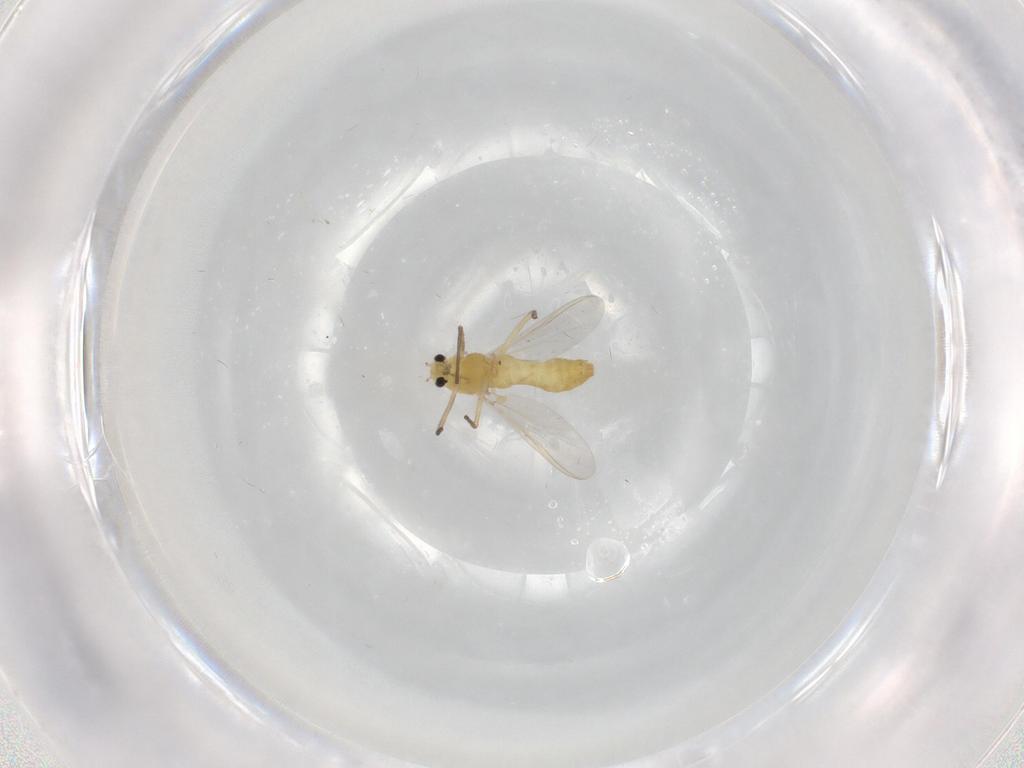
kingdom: Animalia
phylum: Arthropoda
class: Insecta
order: Diptera
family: Chironomidae
